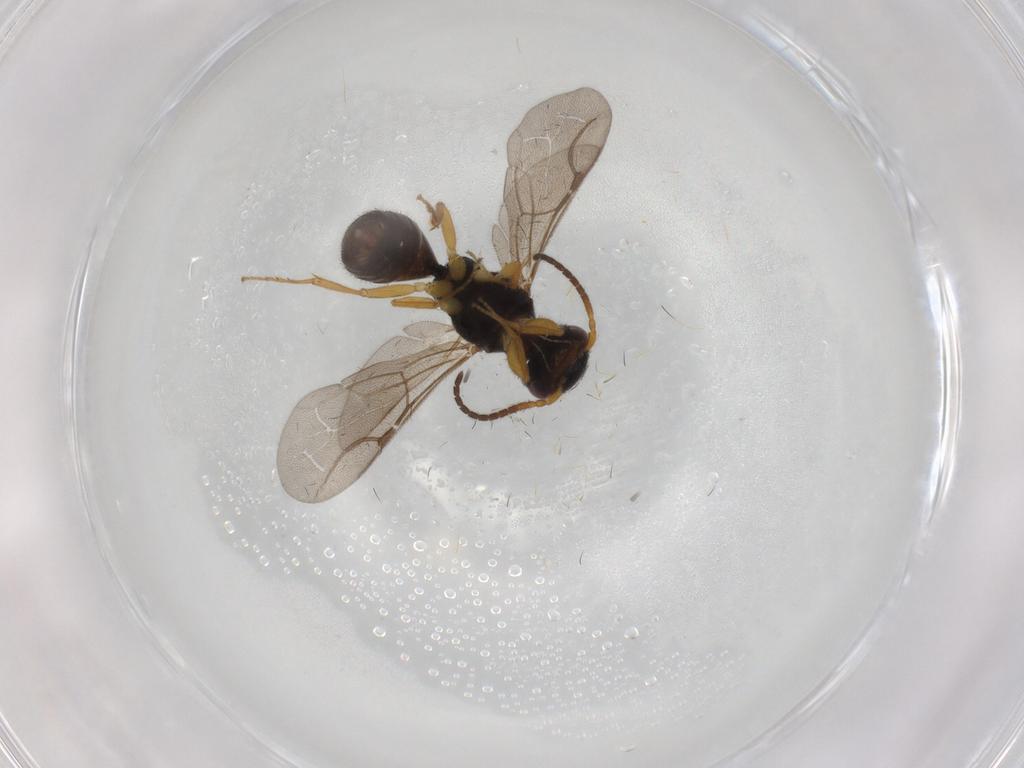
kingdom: Animalia
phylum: Arthropoda
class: Insecta
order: Hymenoptera
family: Bethylidae
